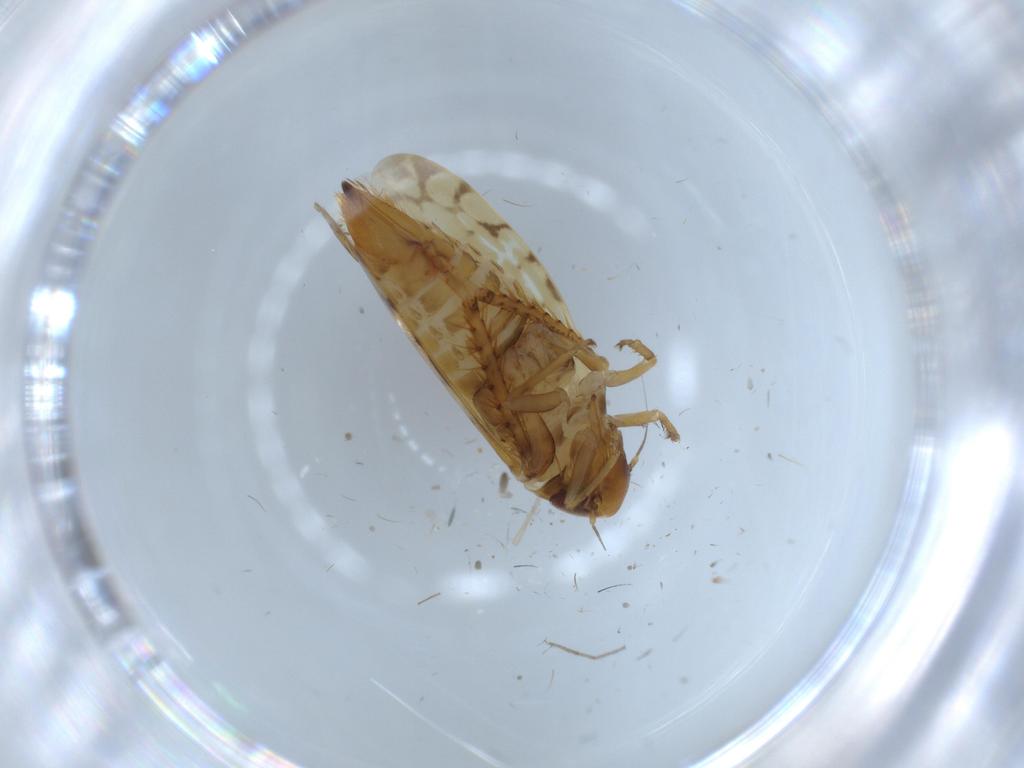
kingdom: Animalia
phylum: Arthropoda
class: Insecta
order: Hemiptera
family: Cicadellidae
